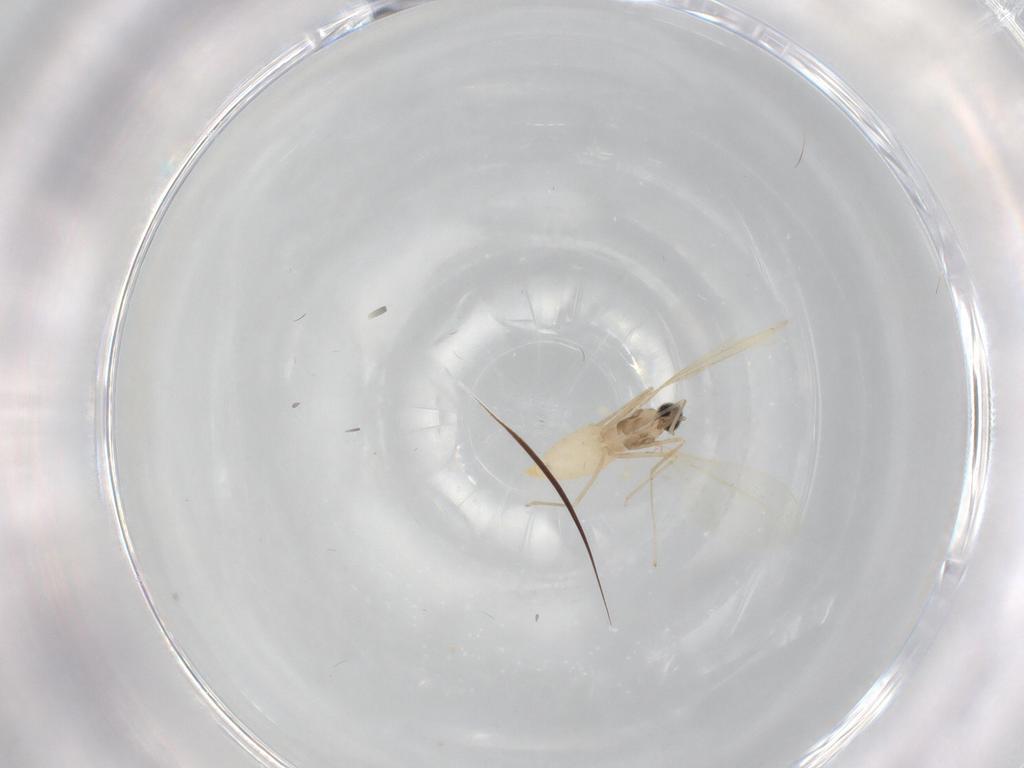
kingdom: Animalia
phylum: Arthropoda
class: Insecta
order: Diptera
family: Cecidomyiidae
